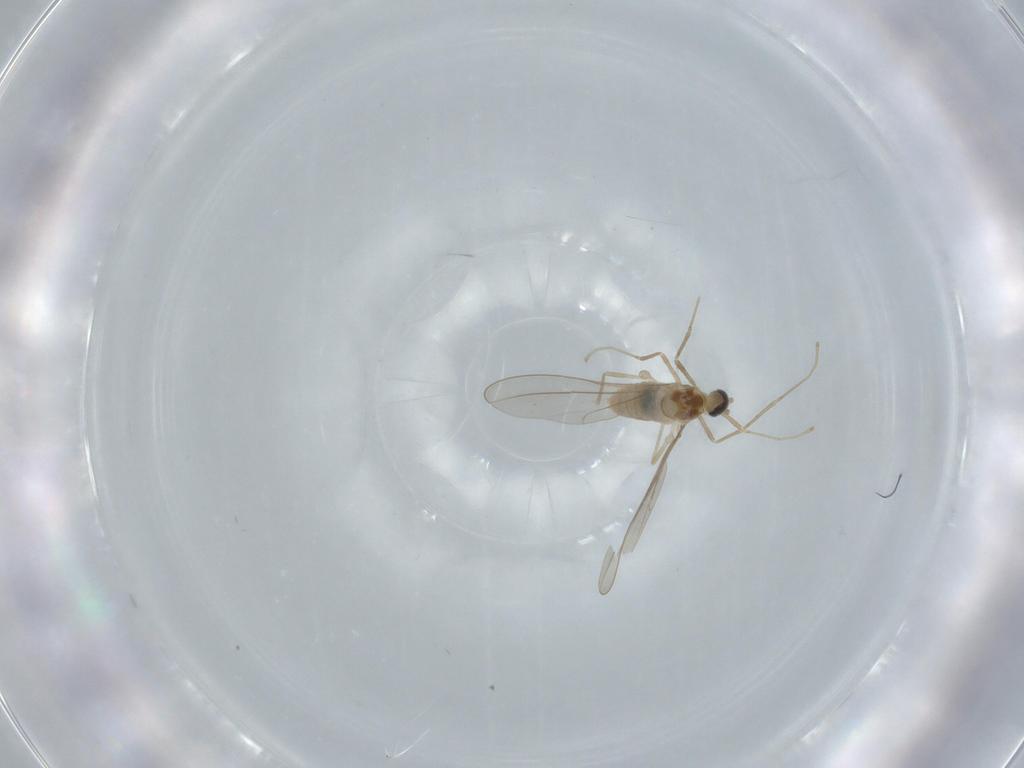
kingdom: Animalia
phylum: Arthropoda
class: Insecta
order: Diptera
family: Cecidomyiidae
